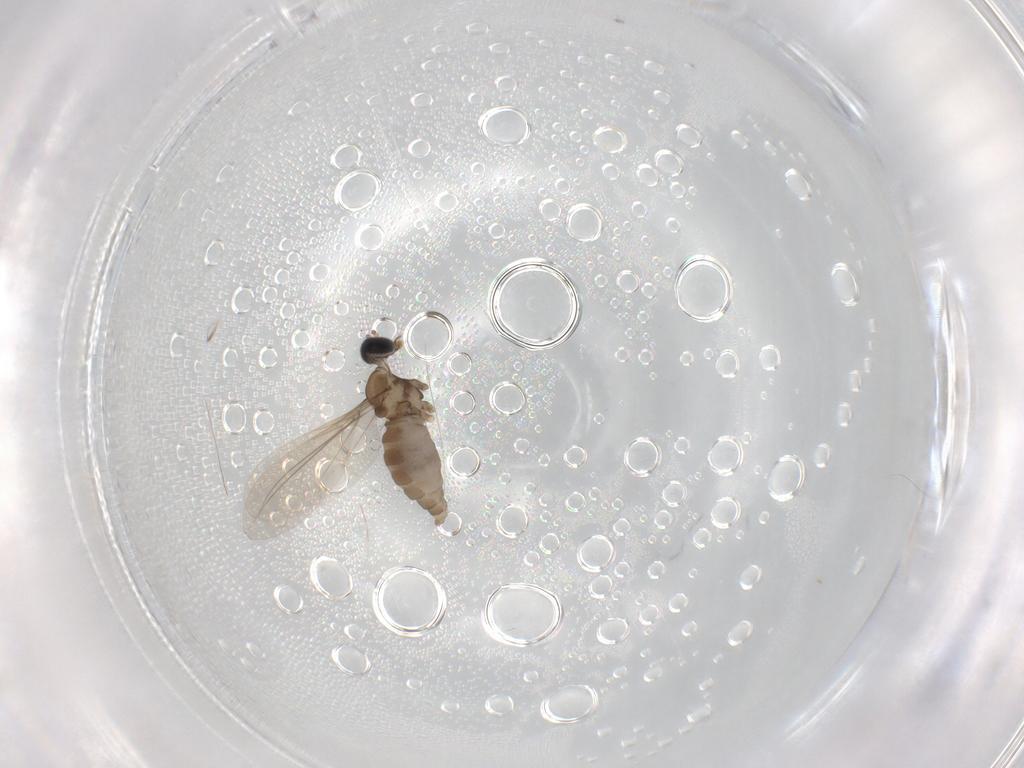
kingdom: Animalia
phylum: Arthropoda
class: Insecta
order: Diptera
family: Cecidomyiidae
